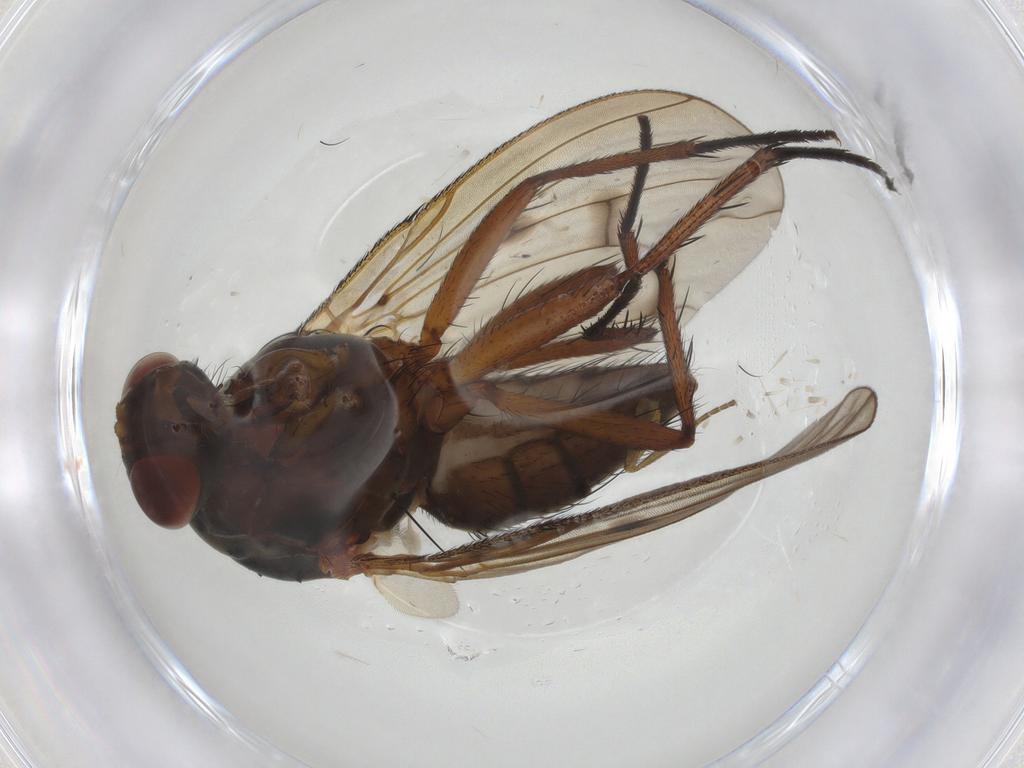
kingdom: Animalia
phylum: Arthropoda
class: Insecta
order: Diptera
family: Anthomyiidae
